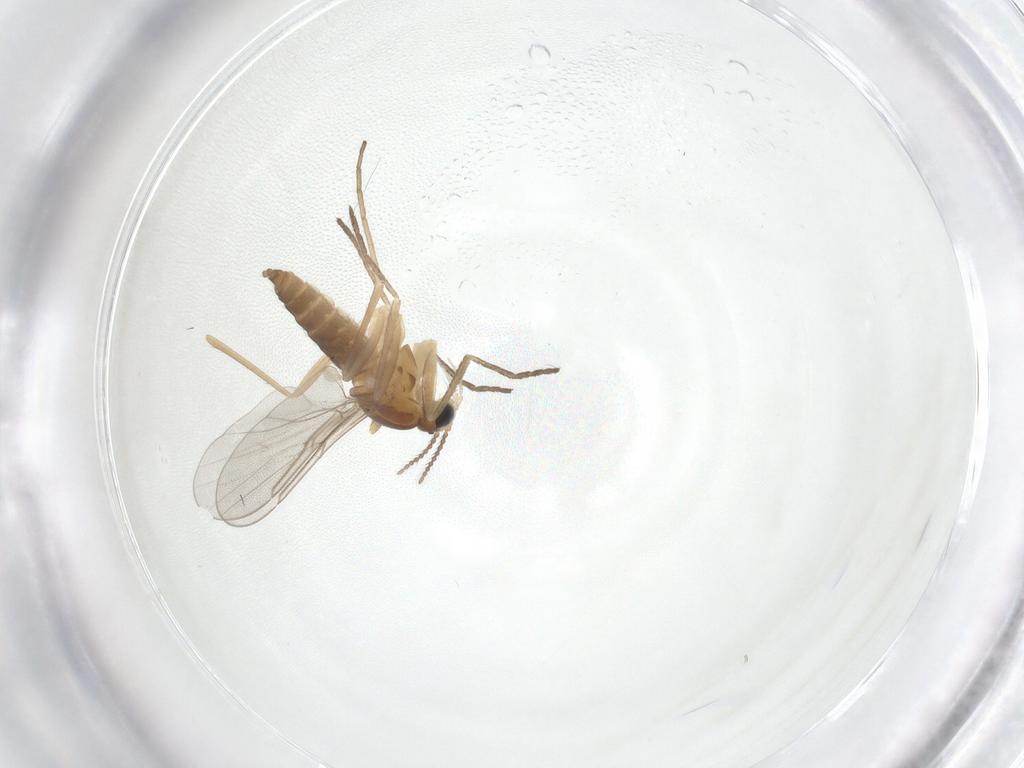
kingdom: Animalia
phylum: Arthropoda
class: Insecta
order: Diptera
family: Cecidomyiidae
